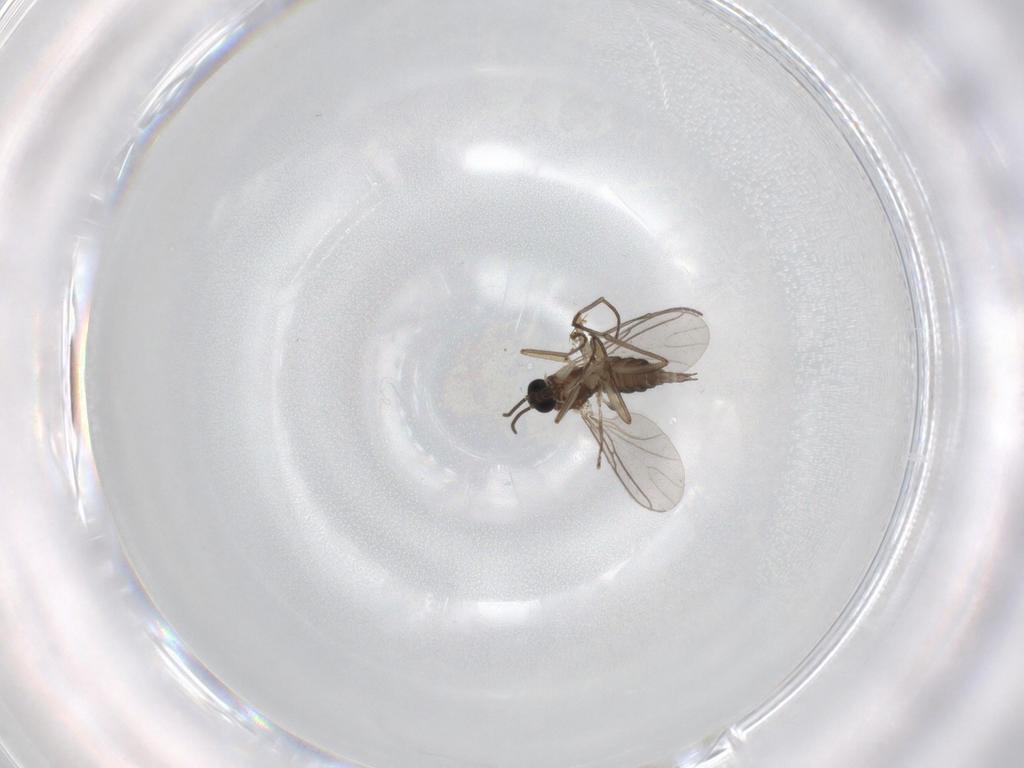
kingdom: Animalia
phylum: Arthropoda
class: Insecta
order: Diptera
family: Sciaridae
